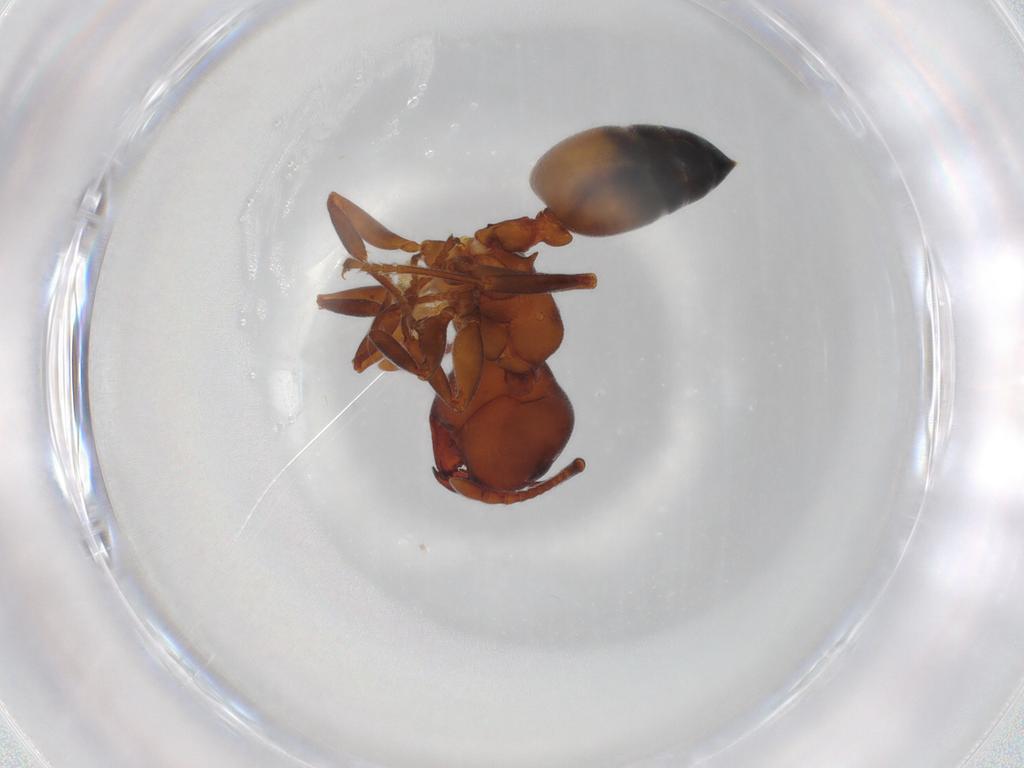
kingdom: Animalia
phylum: Arthropoda
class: Insecta
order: Hymenoptera
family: Formicidae
